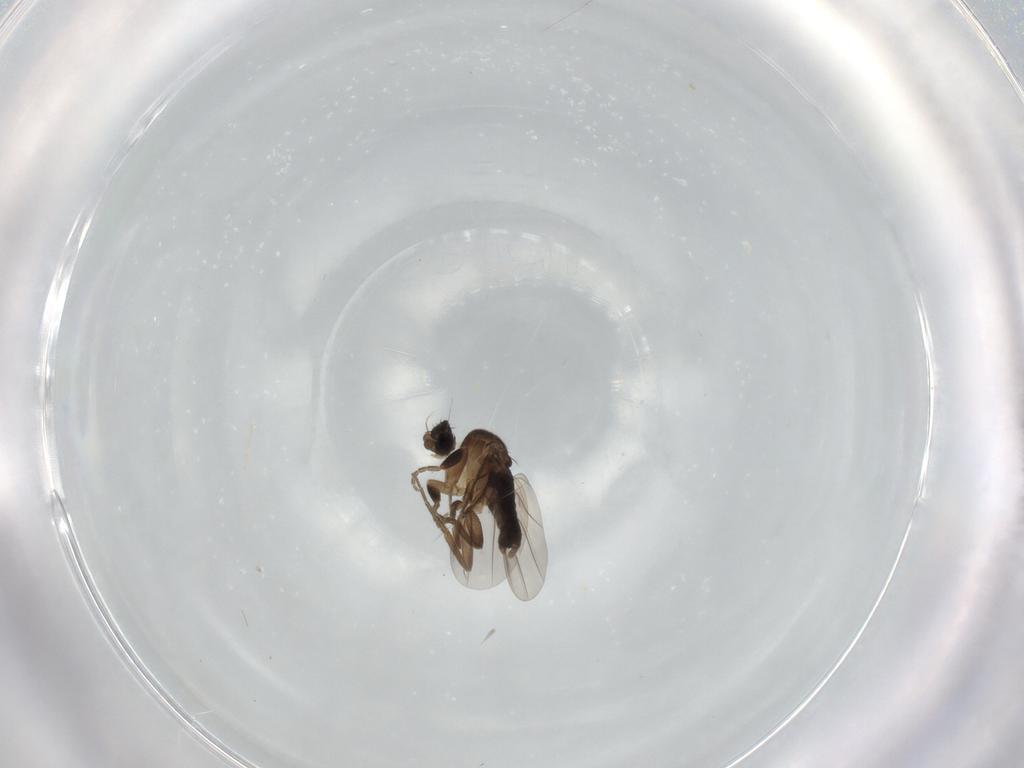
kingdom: Animalia
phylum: Arthropoda
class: Insecta
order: Diptera
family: Phoridae
